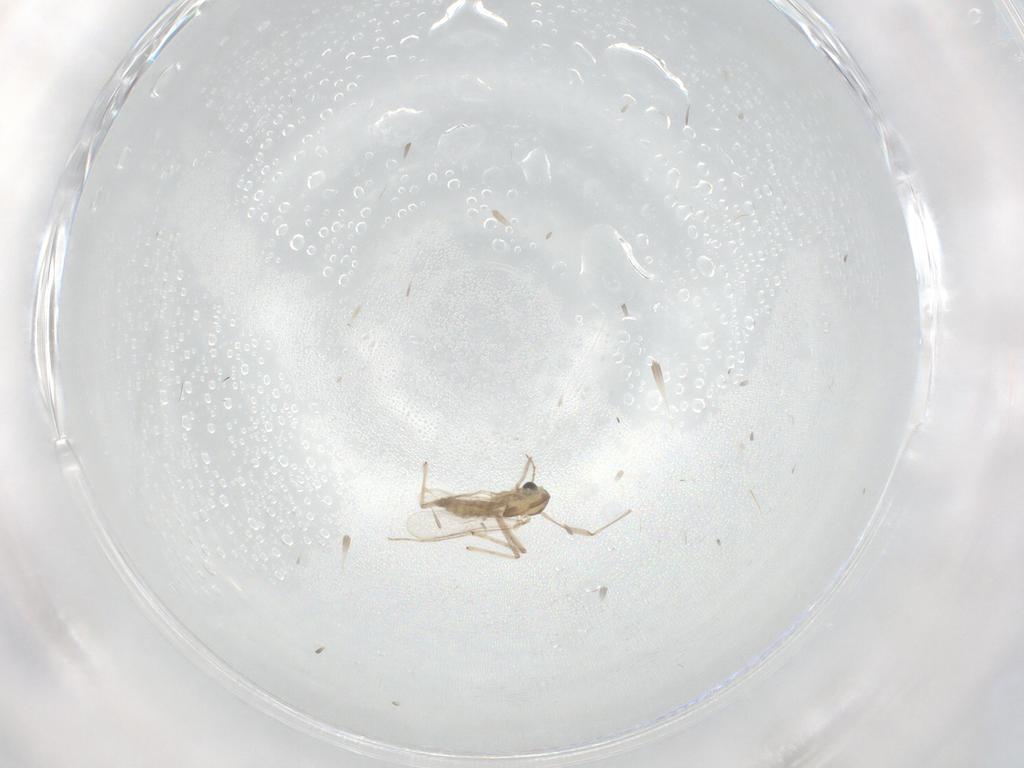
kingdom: Animalia
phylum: Arthropoda
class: Insecta
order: Diptera
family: Chironomidae
